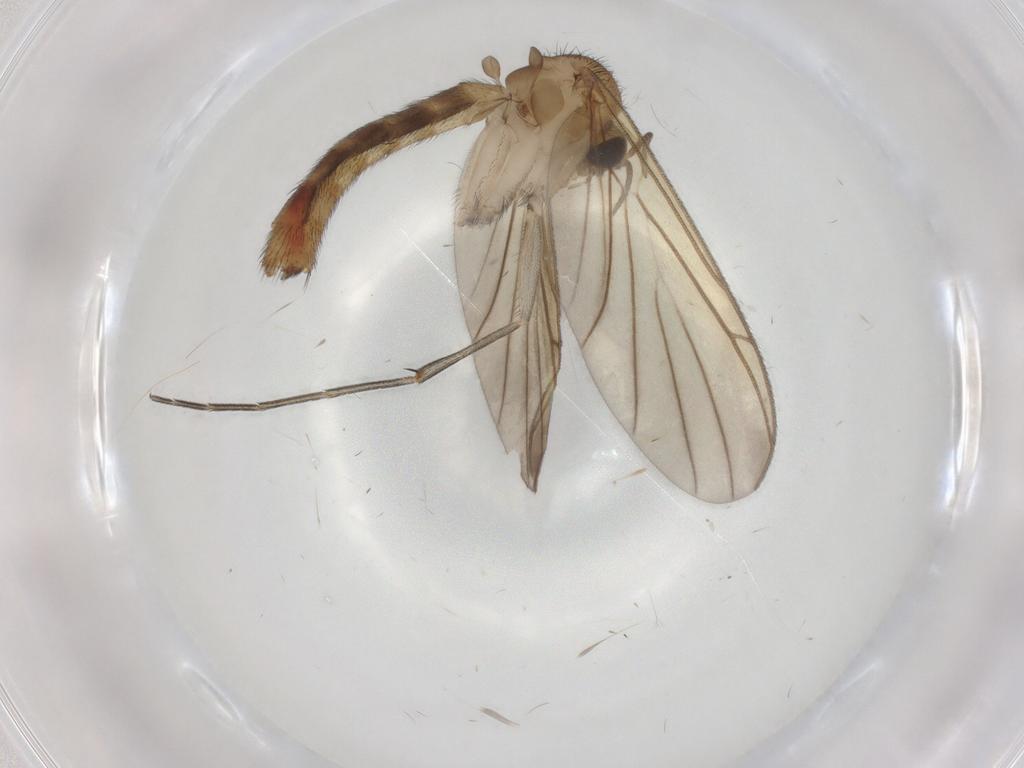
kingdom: Animalia
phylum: Arthropoda
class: Insecta
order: Diptera
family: Keroplatidae
